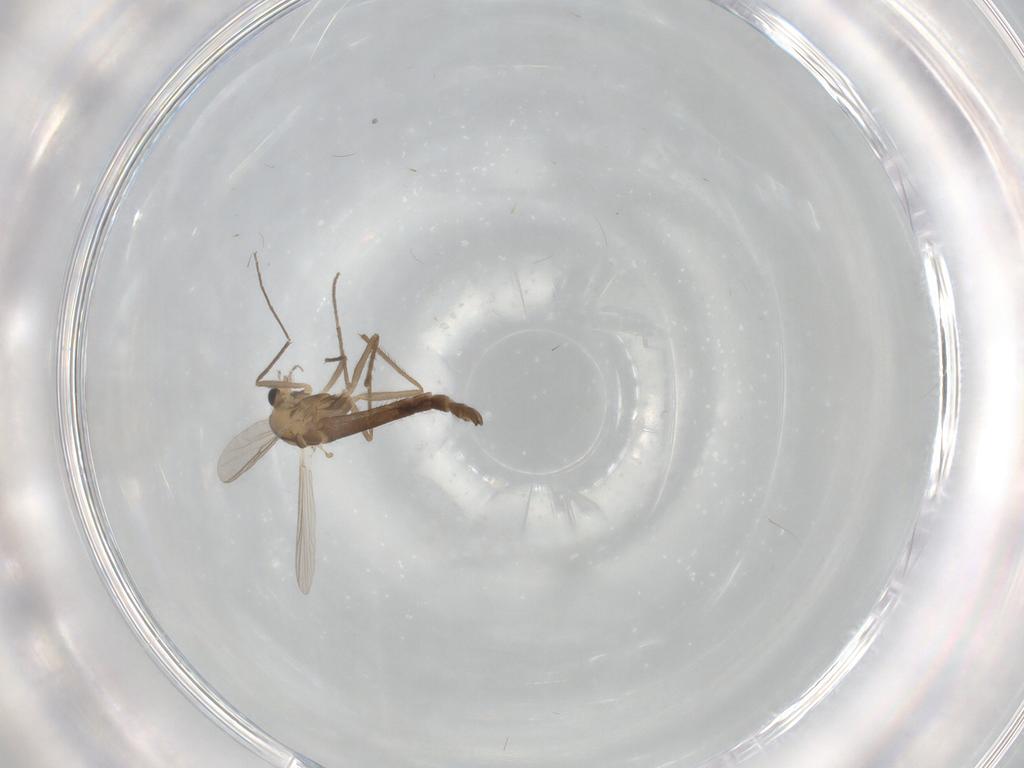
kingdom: Animalia
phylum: Arthropoda
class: Insecta
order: Diptera
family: Chironomidae
